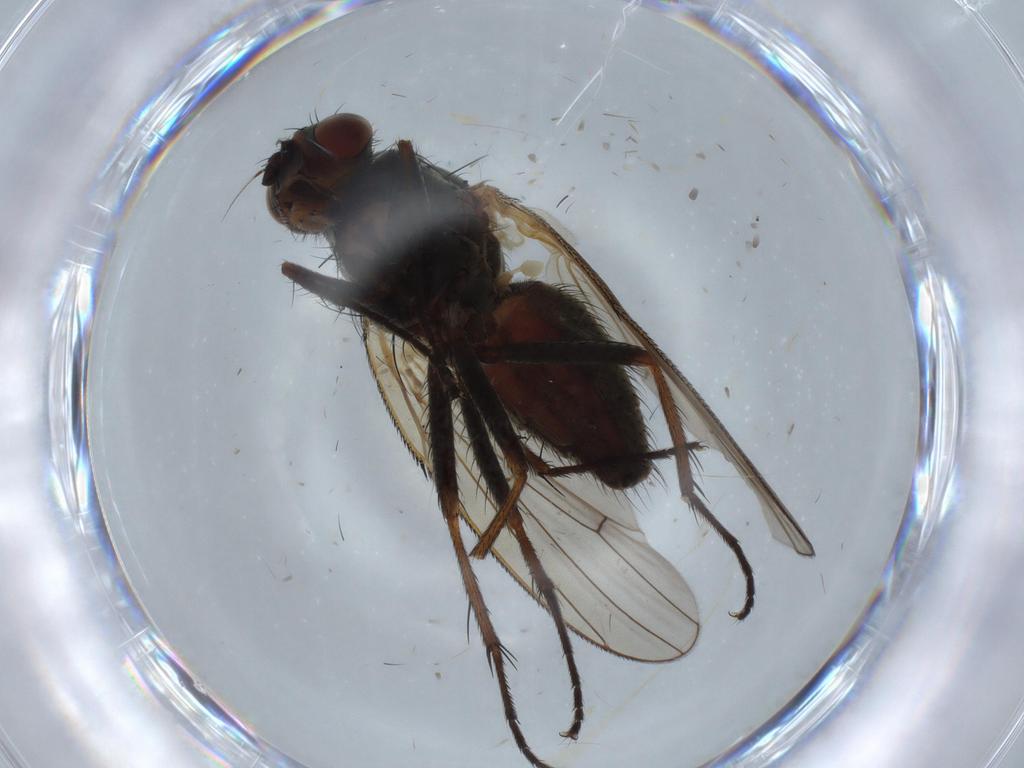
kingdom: Animalia
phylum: Arthropoda
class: Insecta
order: Diptera
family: Anthomyiidae
